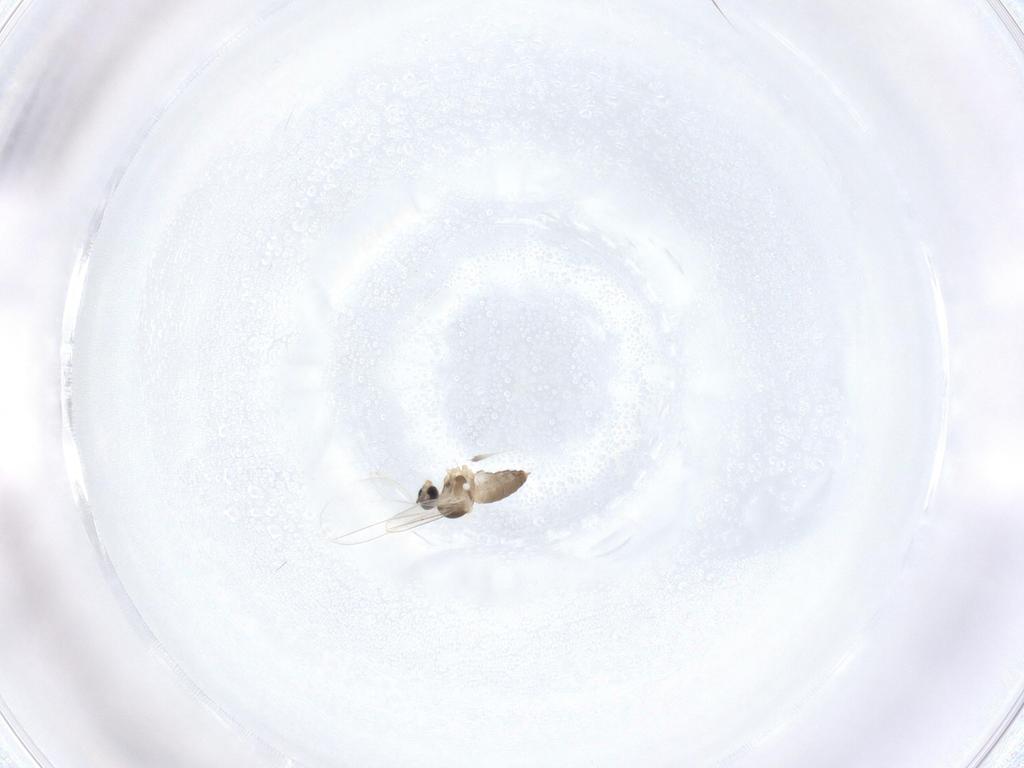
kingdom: Animalia
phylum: Arthropoda
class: Insecta
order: Diptera
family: Cecidomyiidae
